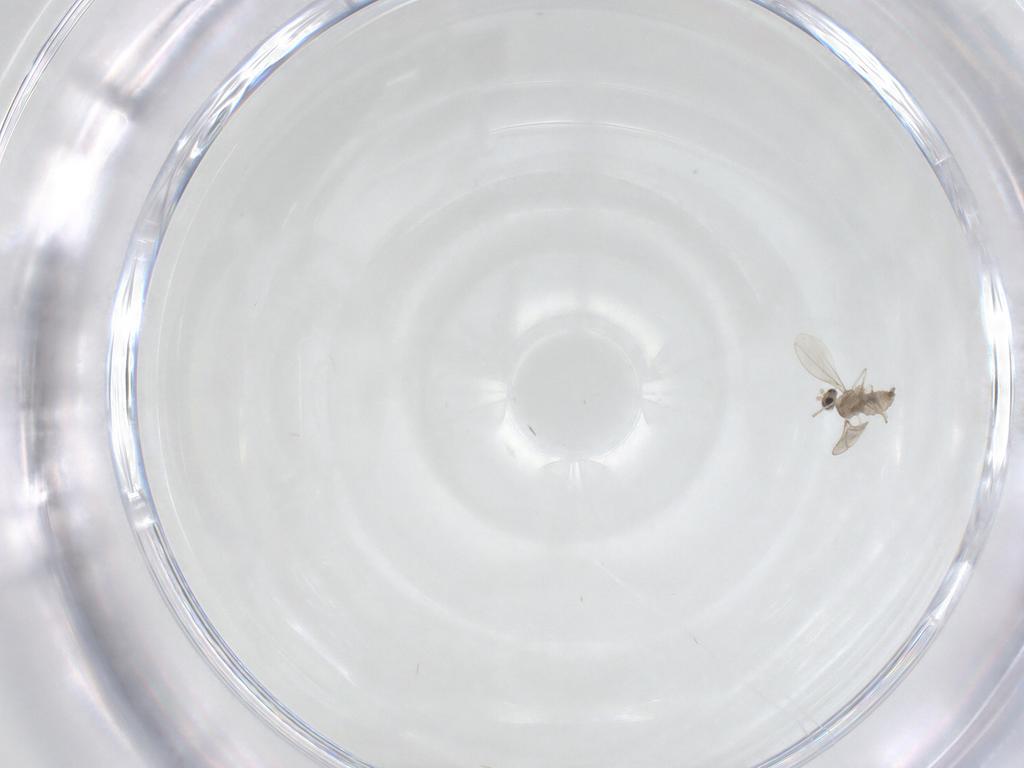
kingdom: Animalia
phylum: Arthropoda
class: Insecta
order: Diptera
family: Cecidomyiidae
